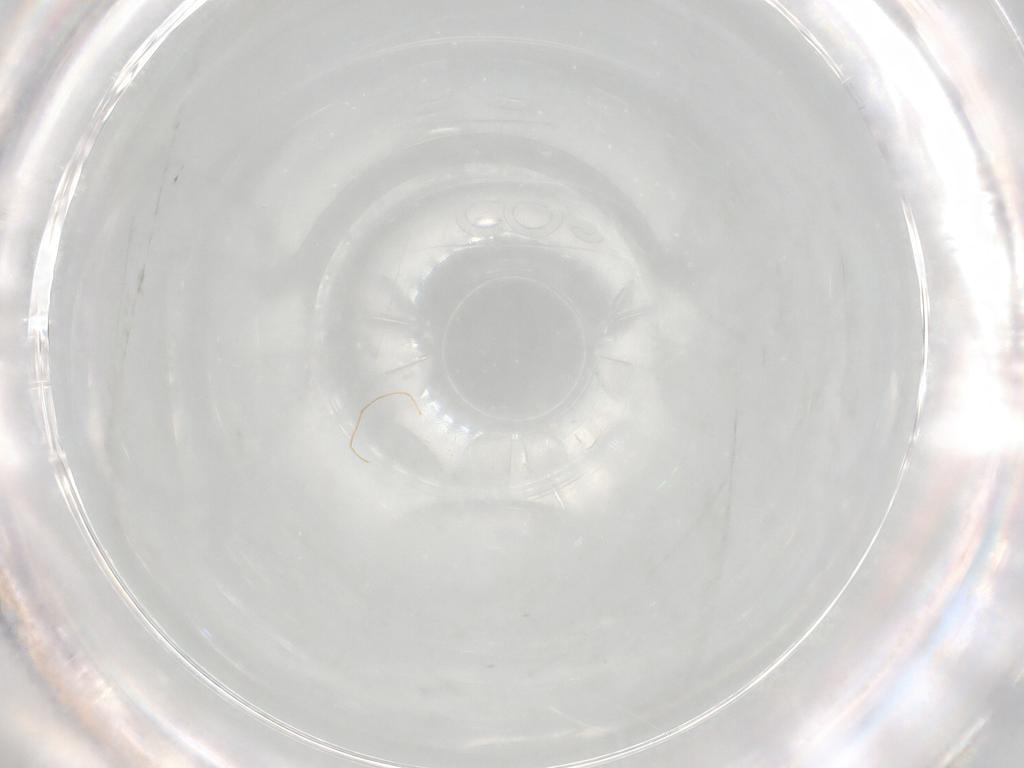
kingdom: Animalia
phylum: Arthropoda
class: Insecta
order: Diptera
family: Chironomidae
